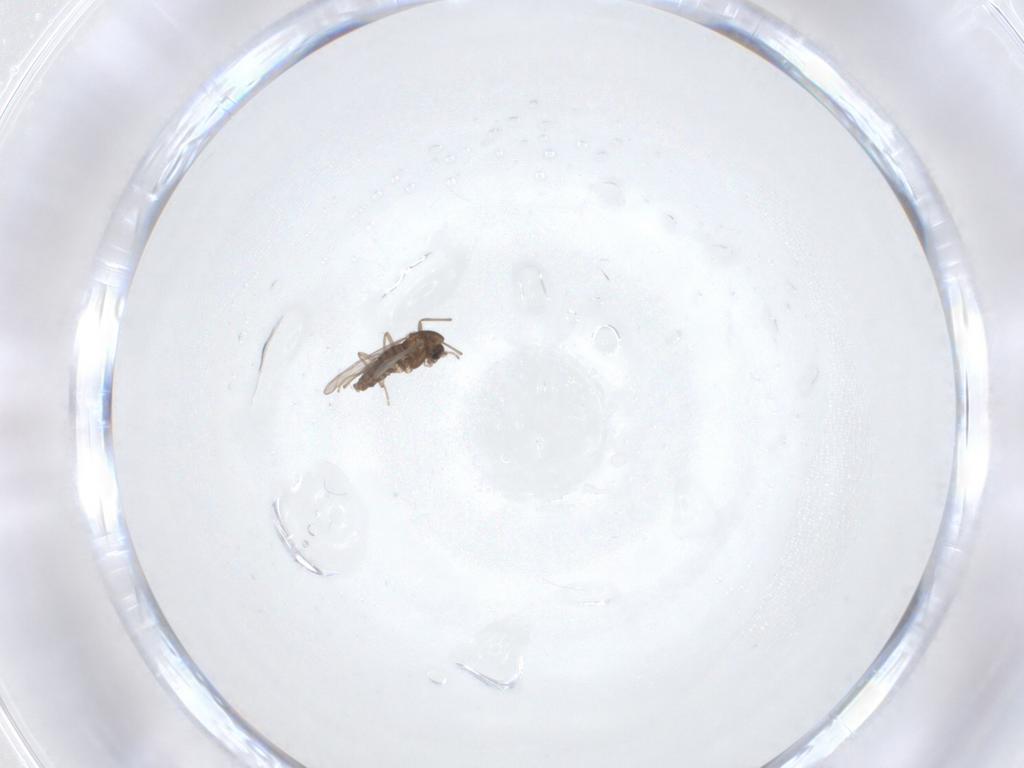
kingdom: Animalia
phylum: Arthropoda
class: Insecta
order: Diptera
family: Chironomidae
